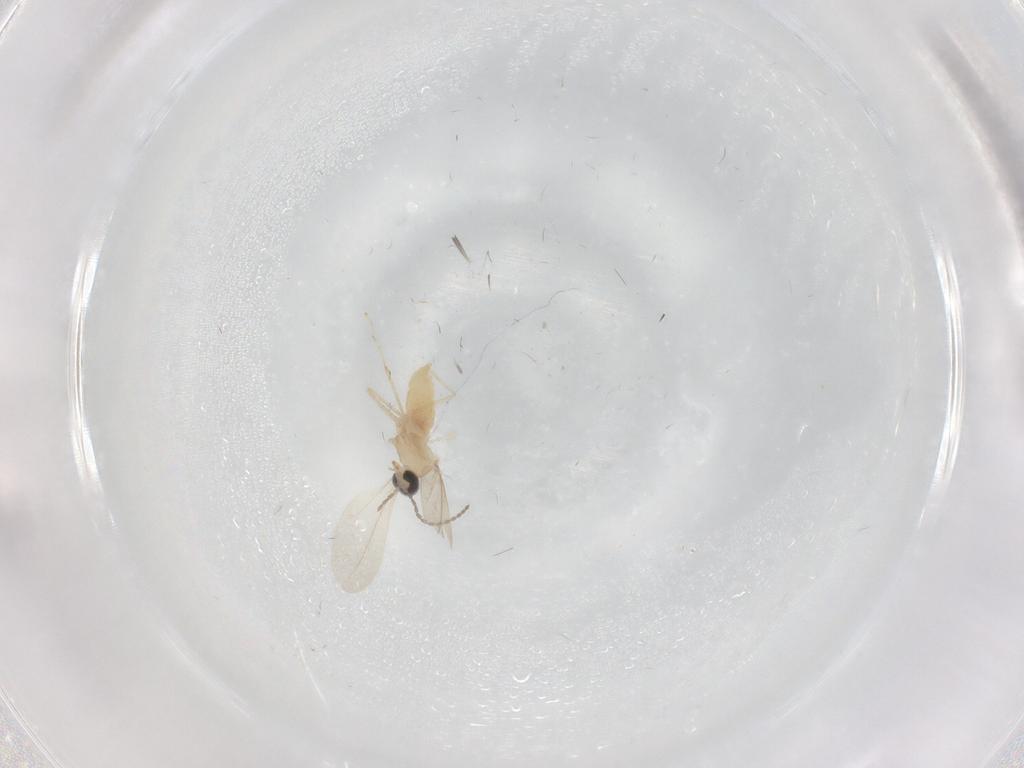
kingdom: Animalia
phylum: Arthropoda
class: Insecta
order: Diptera
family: Cecidomyiidae
